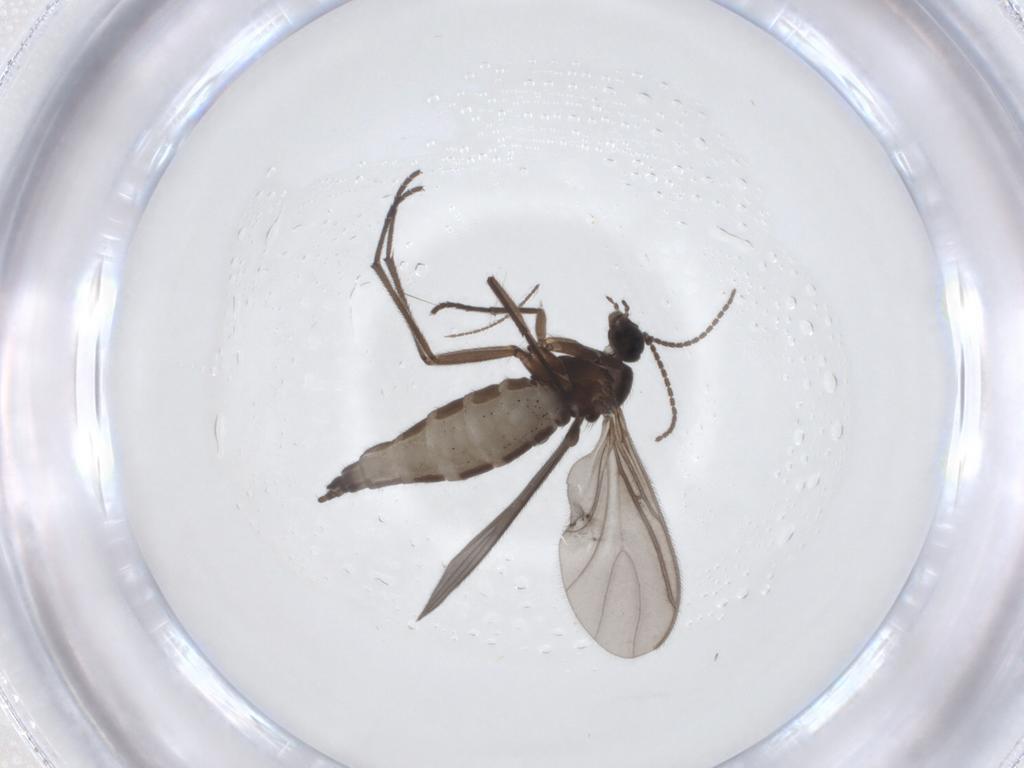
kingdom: Animalia
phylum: Arthropoda
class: Insecta
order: Diptera
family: Sciaridae
